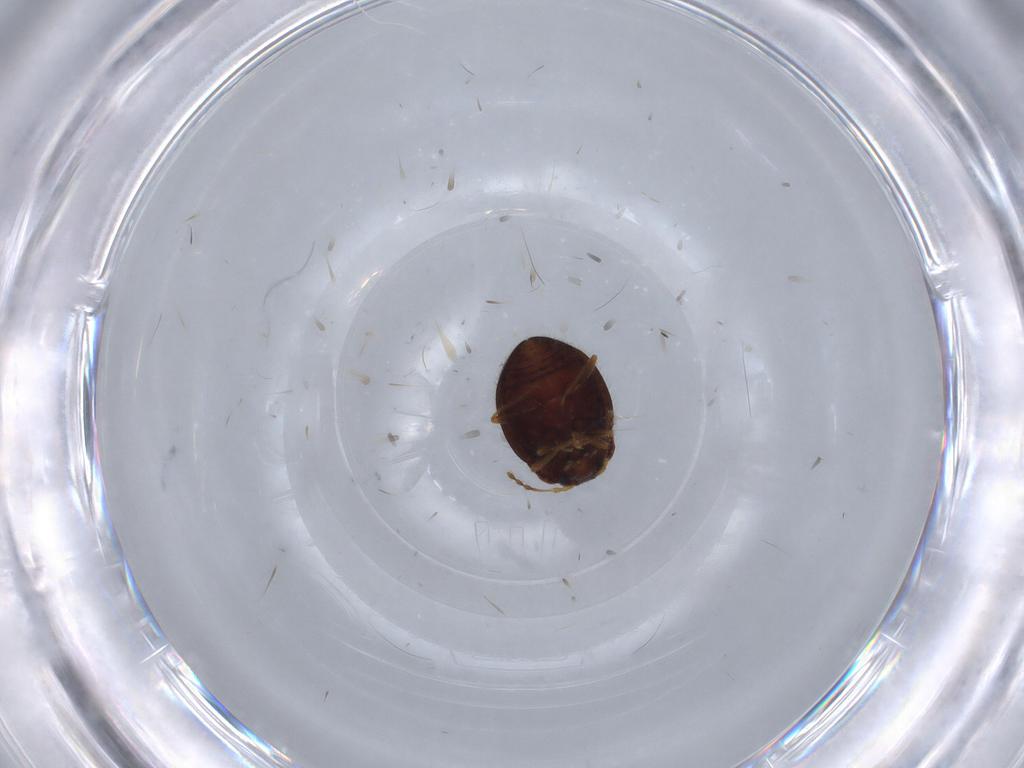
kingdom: Animalia
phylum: Arthropoda
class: Insecta
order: Coleoptera
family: Anamorphidae
